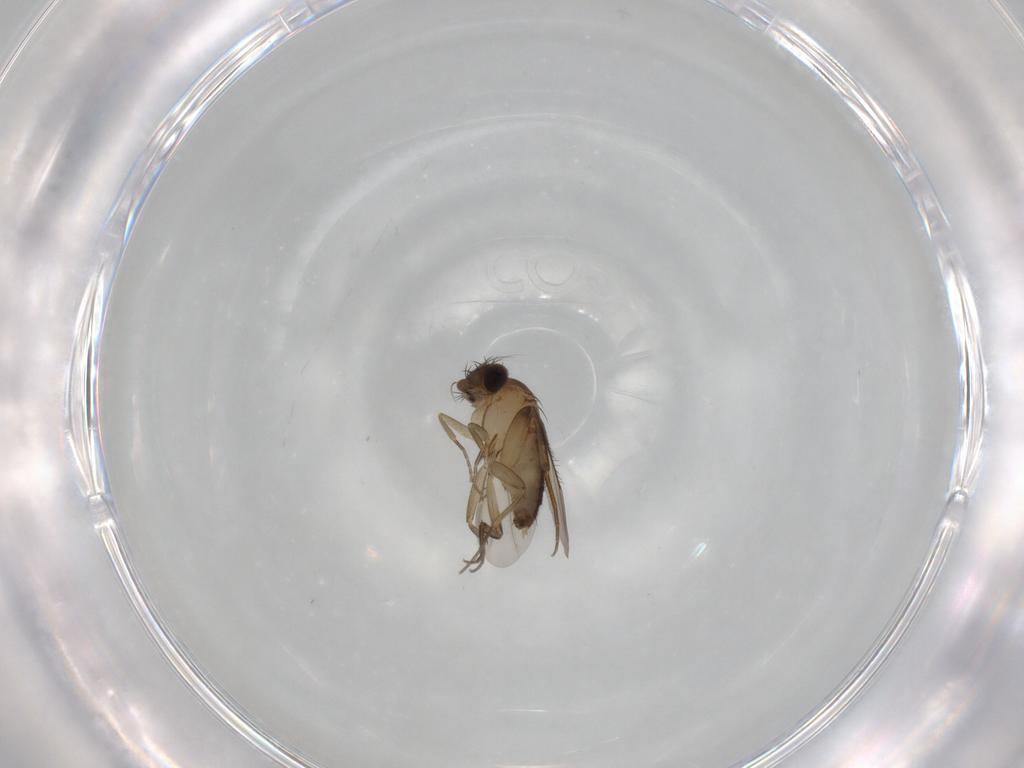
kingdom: Animalia
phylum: Arthropoda
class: Insecta
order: Diptera
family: Phoridae
